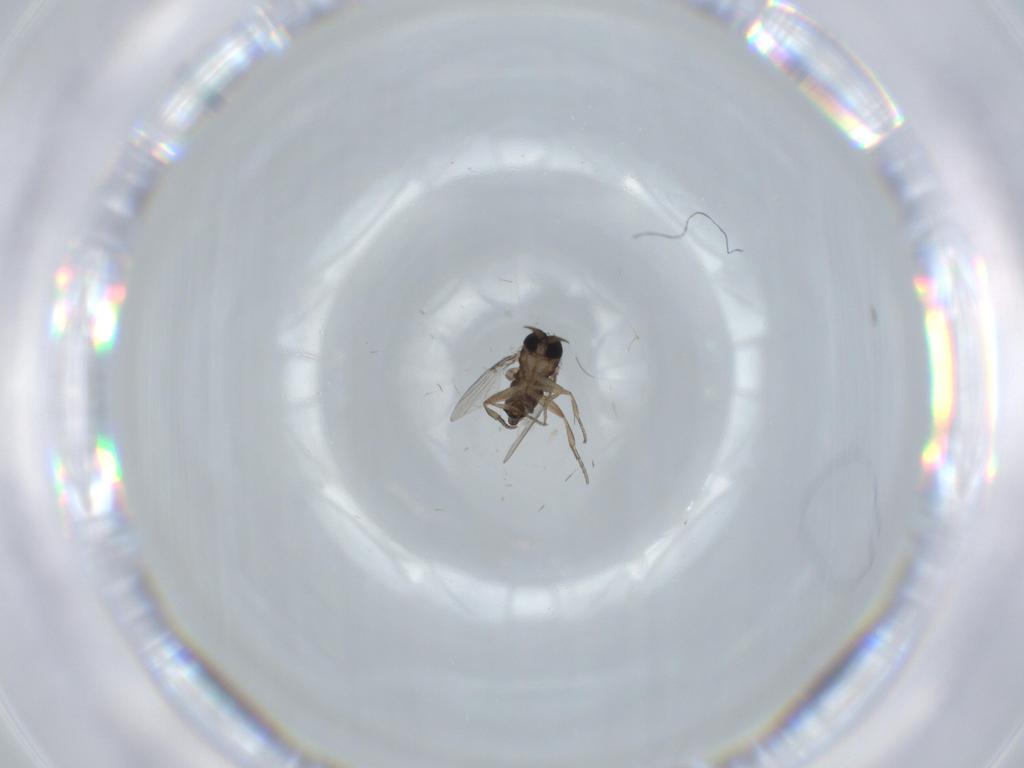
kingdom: Animalia
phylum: Arthropoda
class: Insecta
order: Diptera
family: Phoridae
